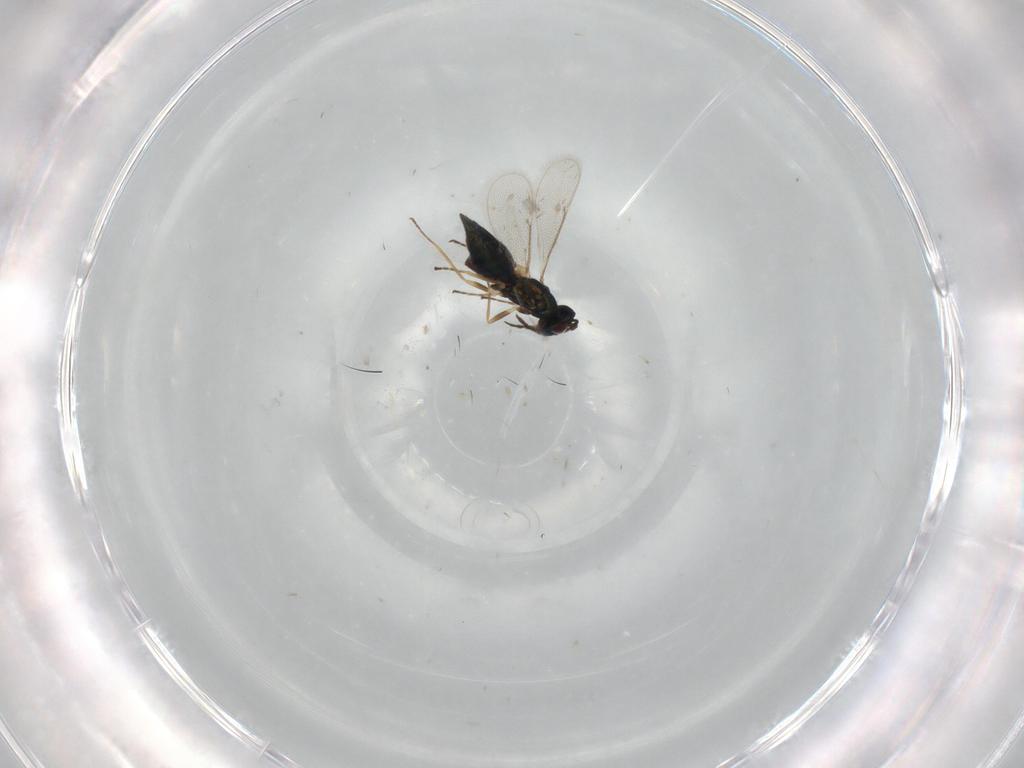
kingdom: Animalia
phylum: Arthropoda
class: Insecta
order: Hymenoptera
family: Eulophidae
